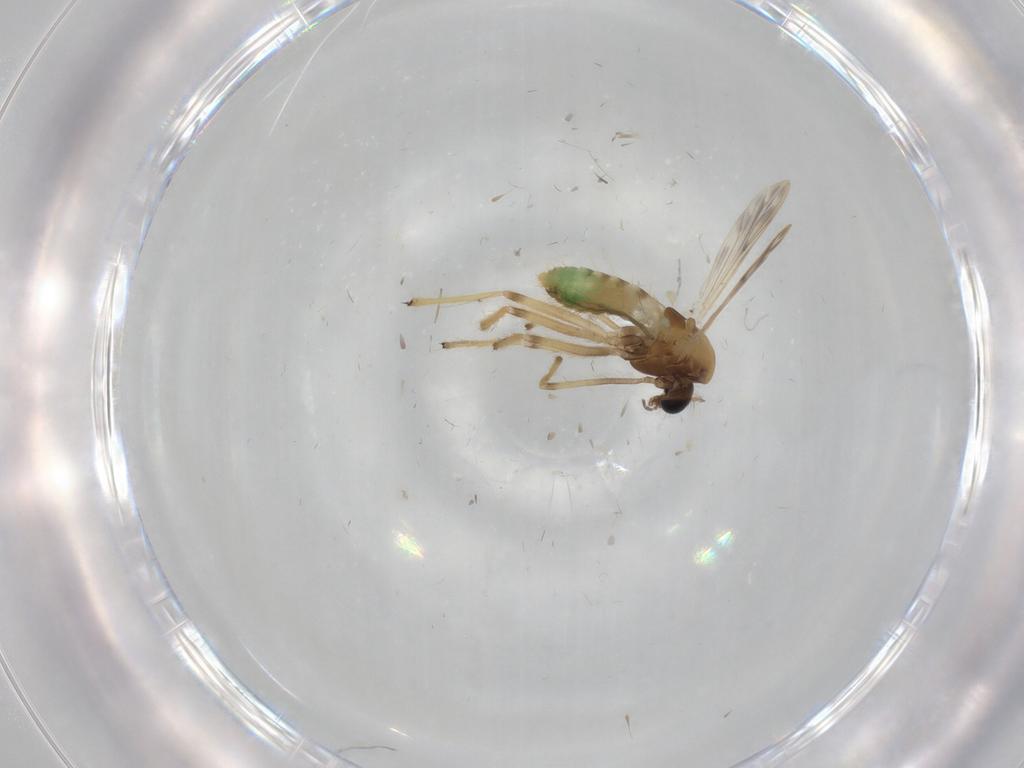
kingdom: Animalia
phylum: Arthropoda
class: Insecta
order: Diptera
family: Chironomidae
